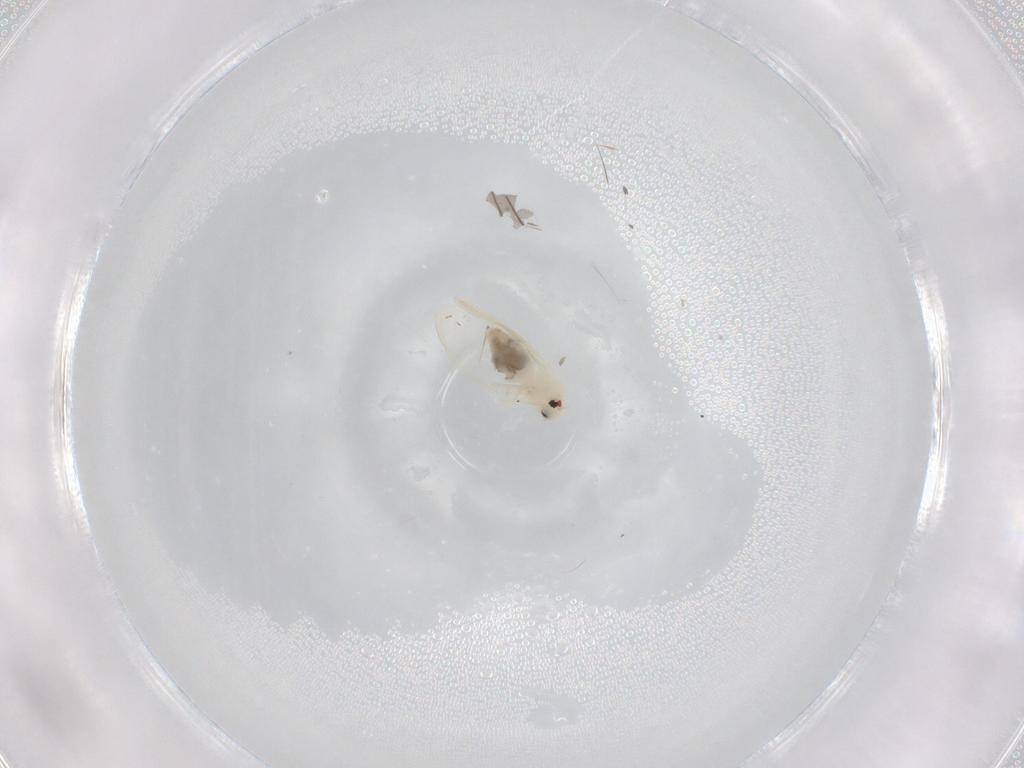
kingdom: Animalia
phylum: Arthropoda
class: Insecta
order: Hemiptera
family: Aleyrodidae
